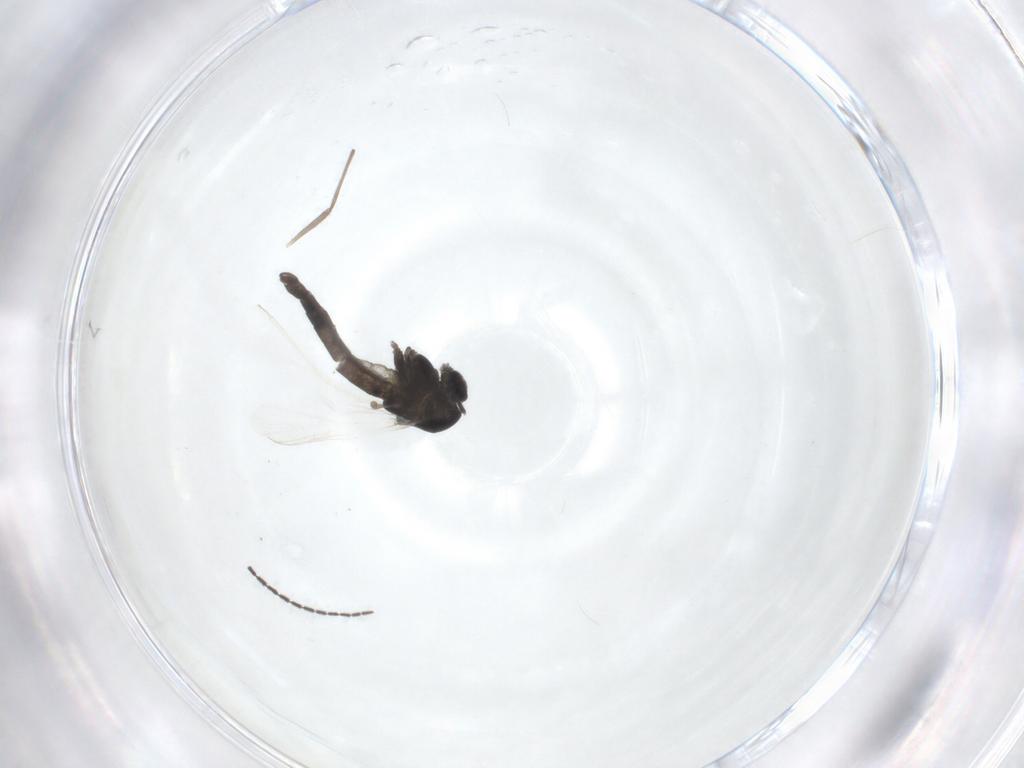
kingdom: Animalia
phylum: Arthropoda
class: Insecta
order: Diptera
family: Chironomidae
